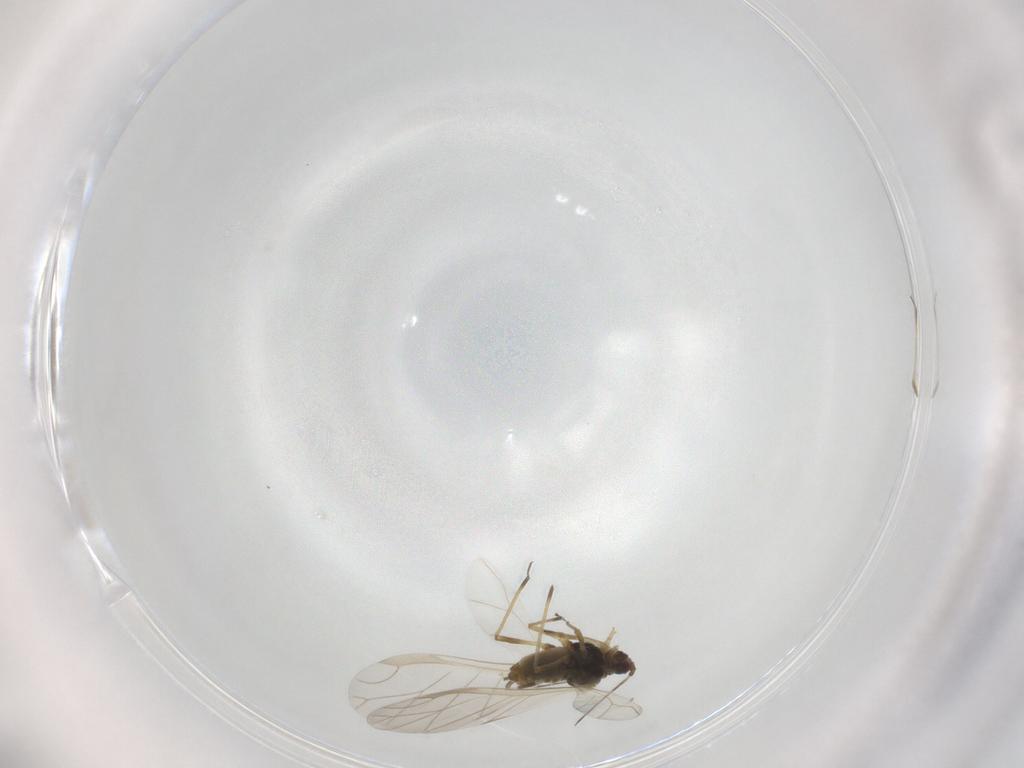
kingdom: Animalia
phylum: Arthropoda
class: Insecta
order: Hemiptera
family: Aphididae
